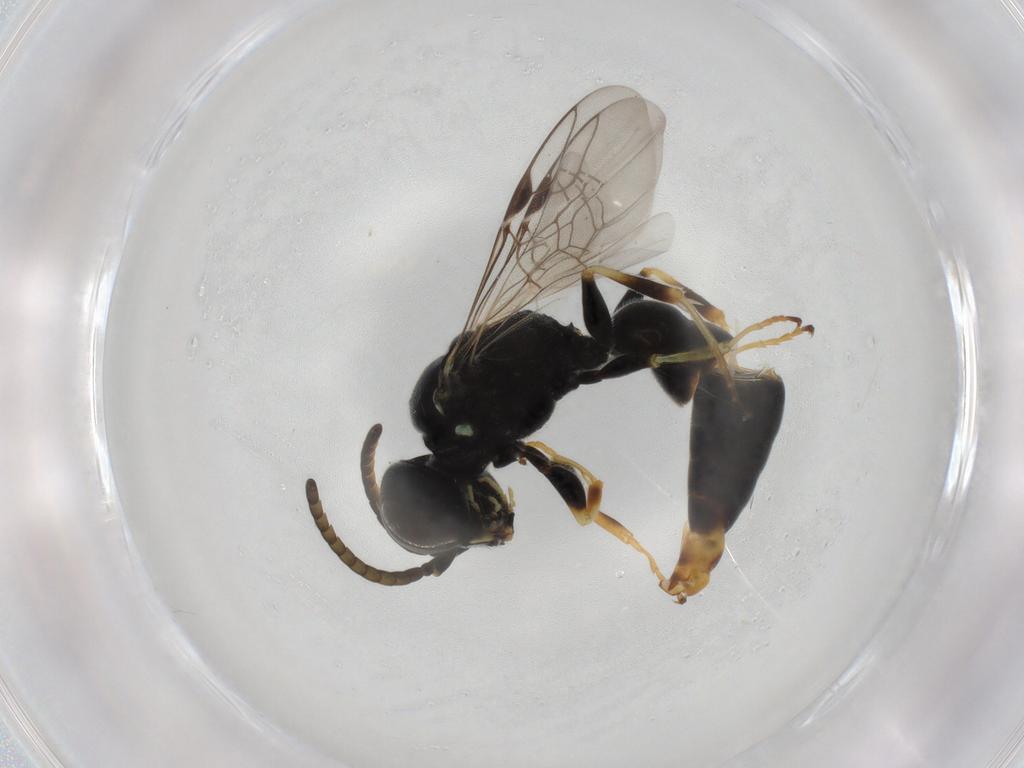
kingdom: Animalia
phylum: Arthropoda
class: Insecta
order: Hymenoptera
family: Crabronidae
